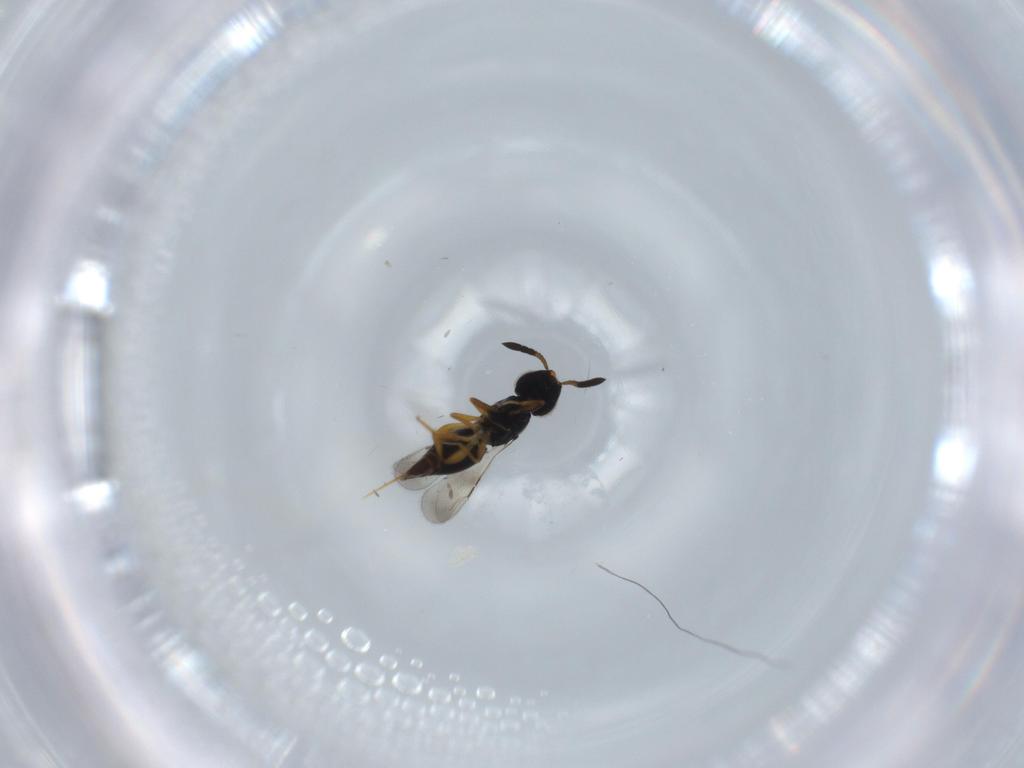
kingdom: Animalia
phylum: Arthropoda
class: Insecta
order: Hymenoptera
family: Ceraphronidae
